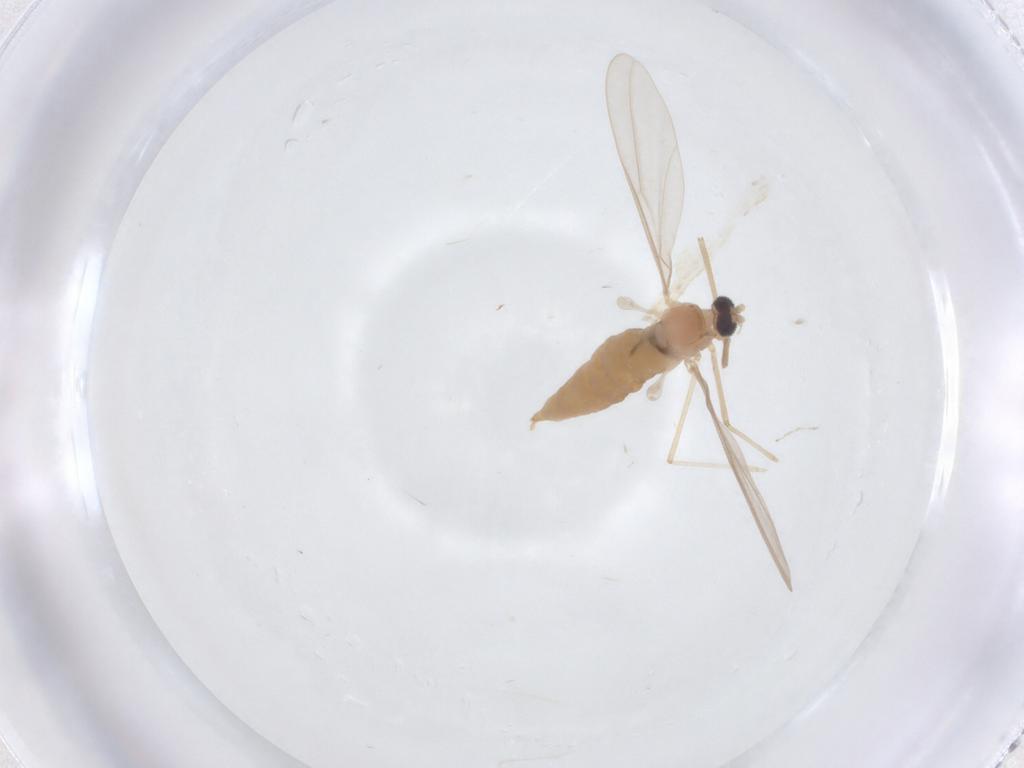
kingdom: Animalia
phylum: Arthropoda
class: Insecta
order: Diptera
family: Cecidomyiidae
